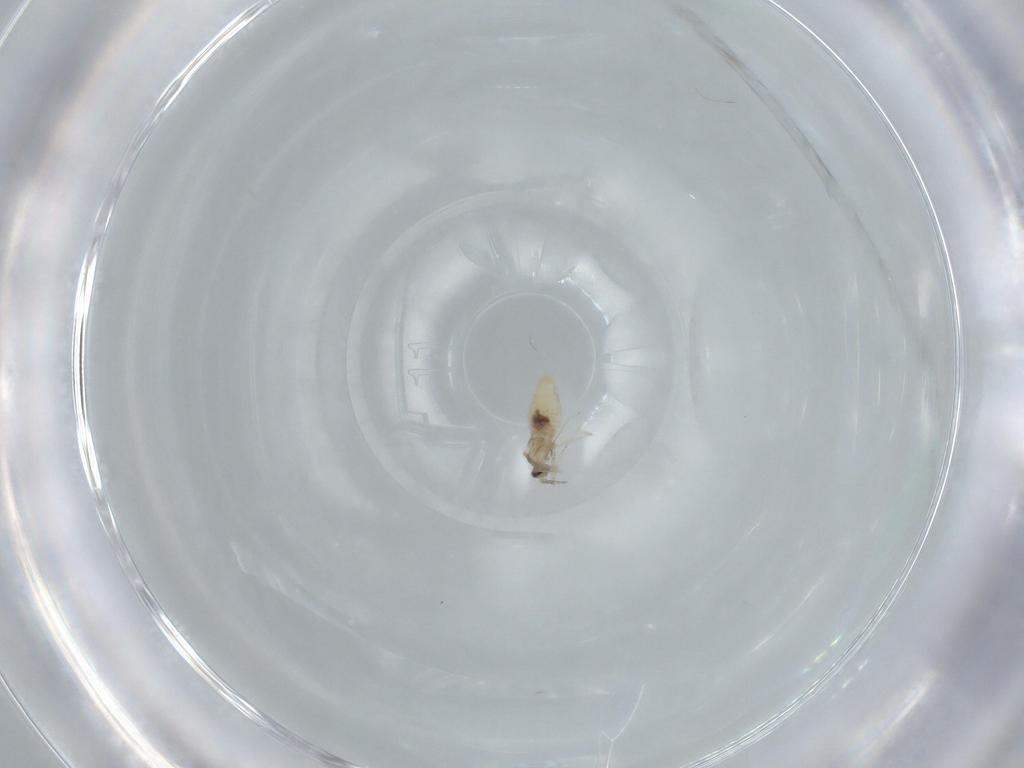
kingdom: Animalia
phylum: Arthropoda
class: Insecta
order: Diptera
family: Cecidomyiidae
